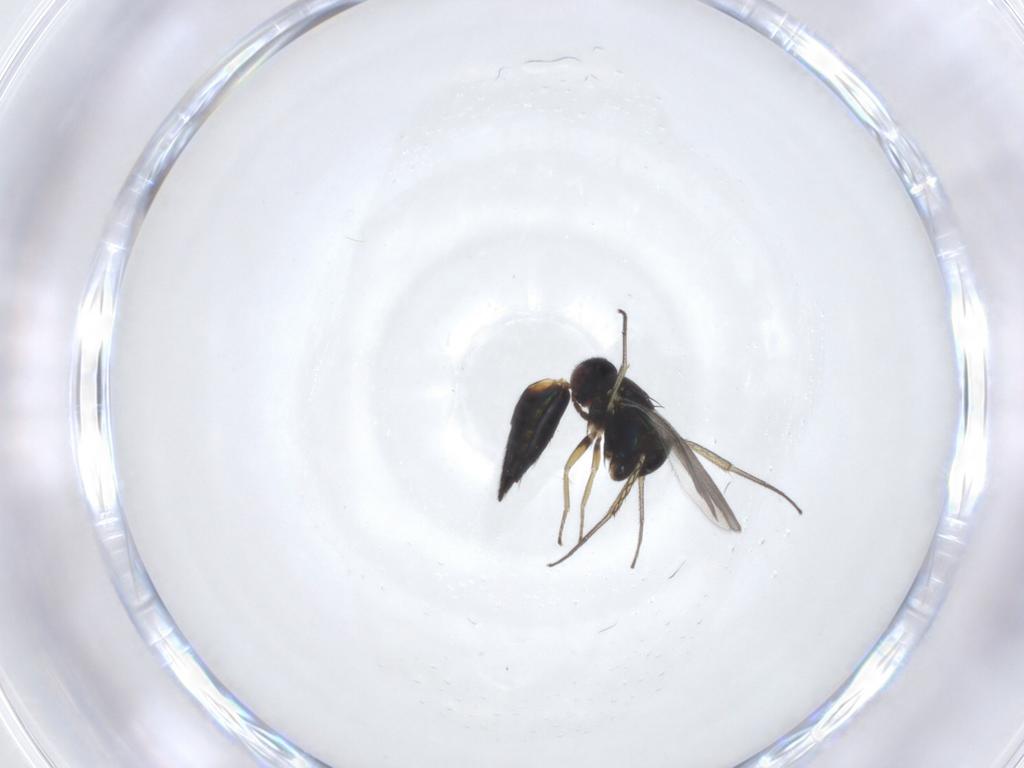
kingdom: Animalia
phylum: Arthropoda
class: Insecta
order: Hymenoptera
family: Eulophidae
